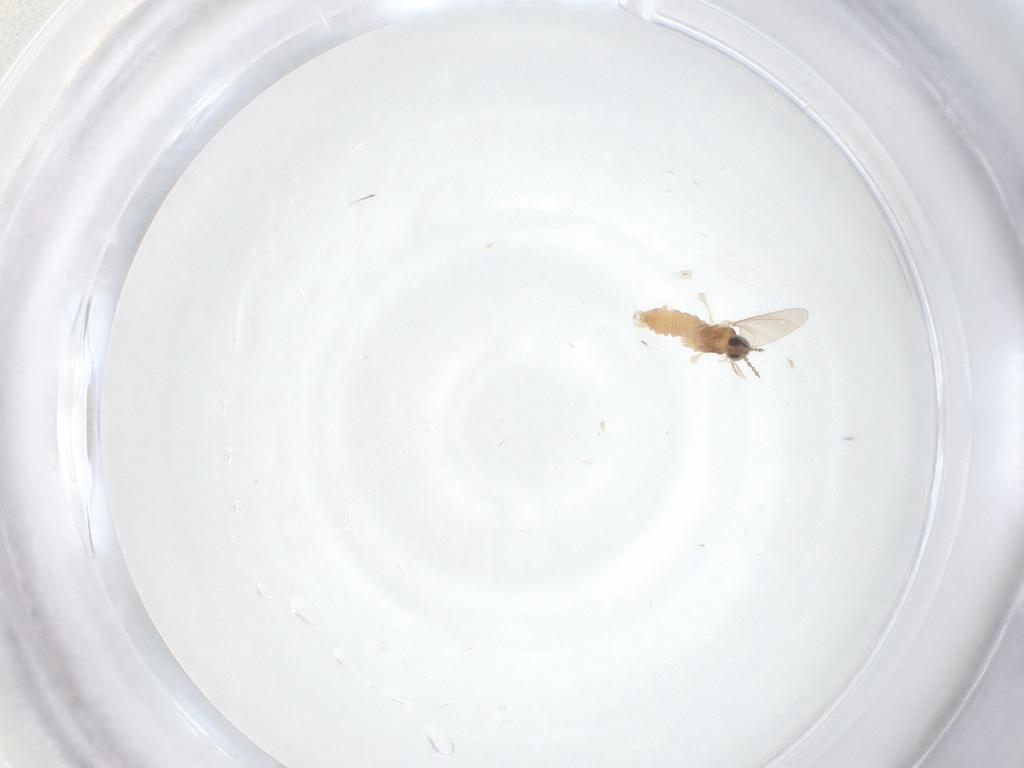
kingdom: Animalia
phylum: Arthropoda
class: Insecta
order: Diptera
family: Cecidomyiidae
